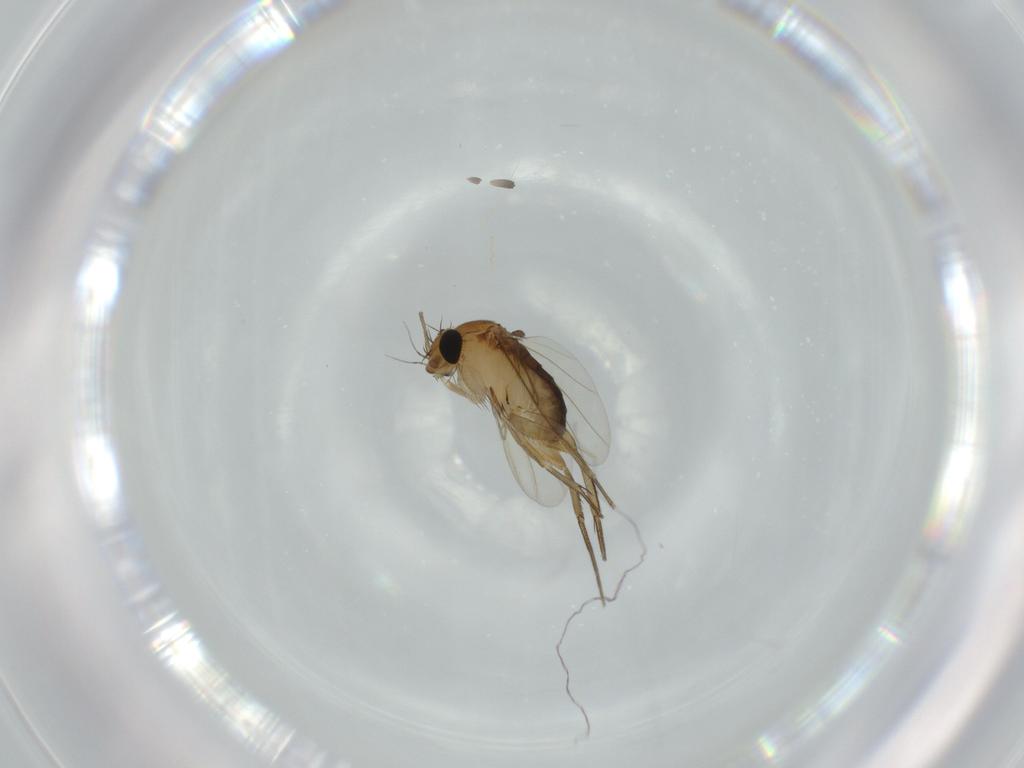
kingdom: Animalia
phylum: Arthropoda
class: Insecta
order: Diptera
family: Phoridae
